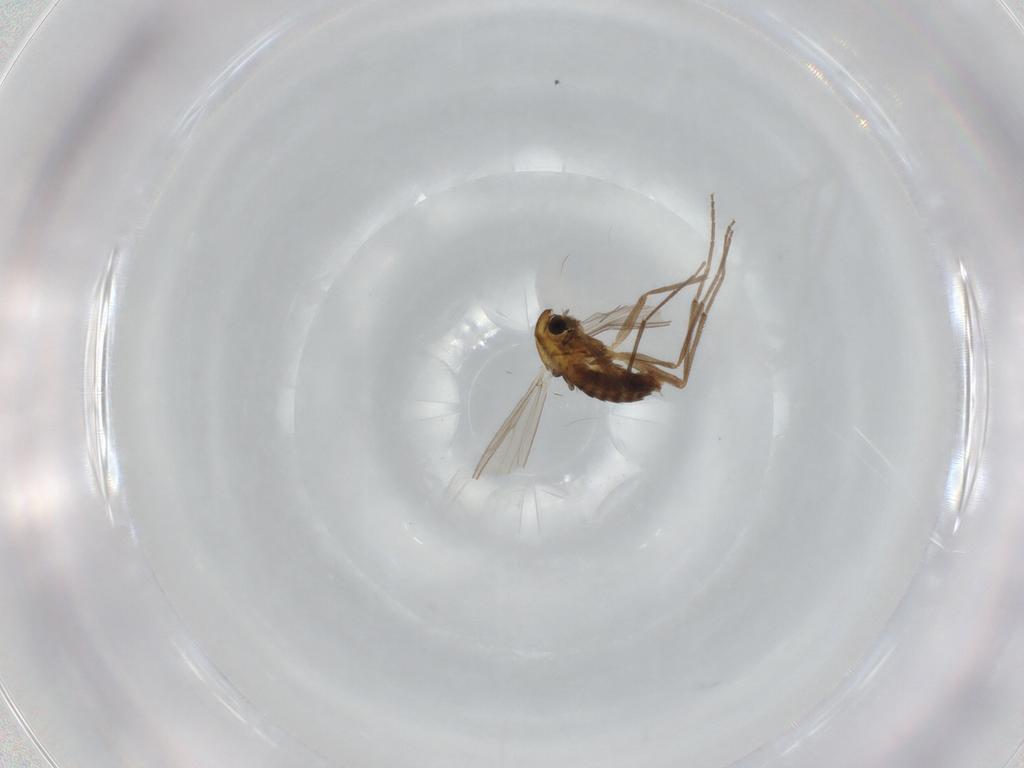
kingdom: Animalia
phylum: Arthropoda
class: Insecta
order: Diptera
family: Chironomidae
